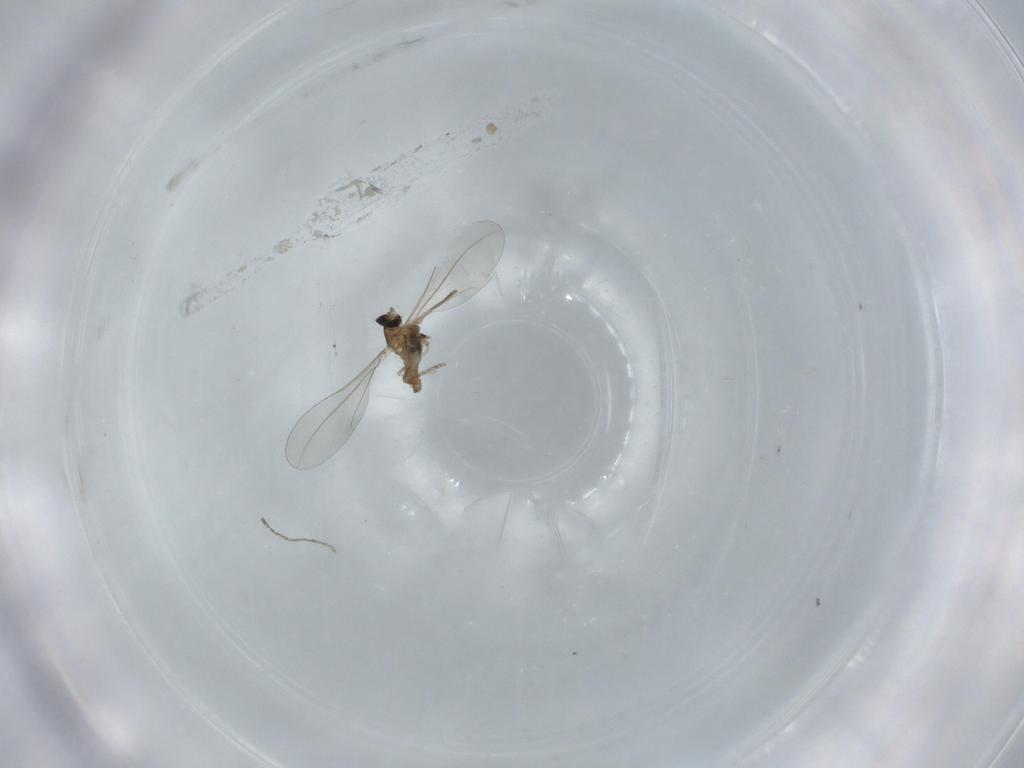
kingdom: Animalia
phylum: Arthropoda
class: Insecta
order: Diptera
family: Cecidomyiidae
